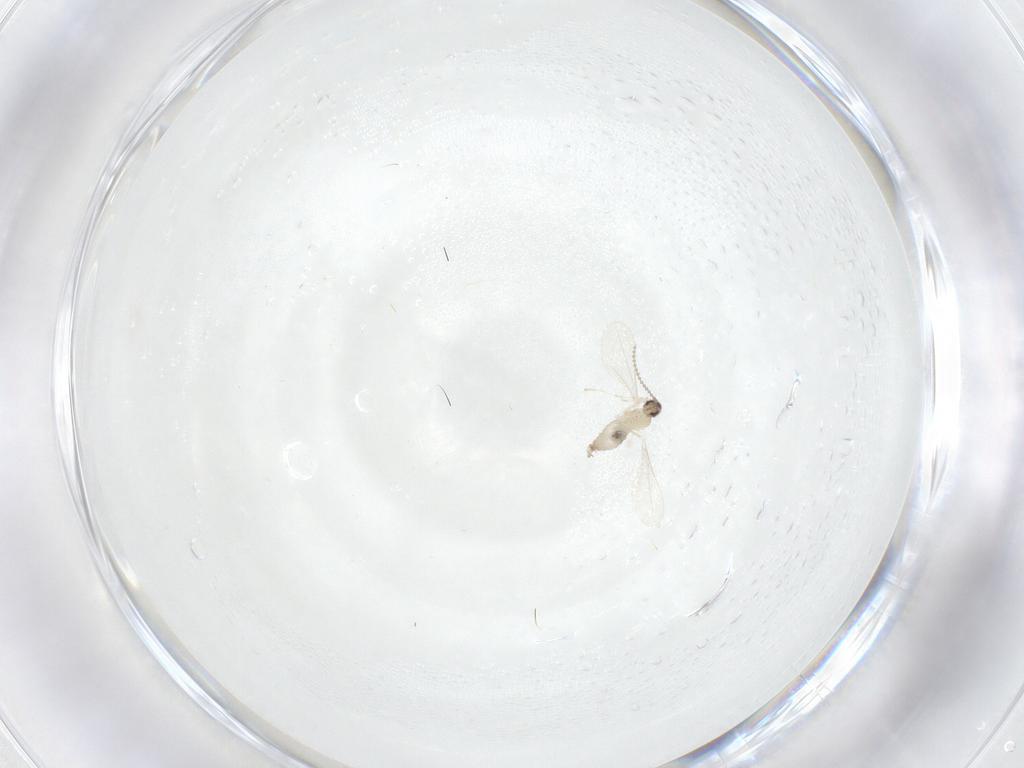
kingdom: Animalia
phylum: Arthropoda
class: Insecta
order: Diptera
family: Cecidomyiidae
